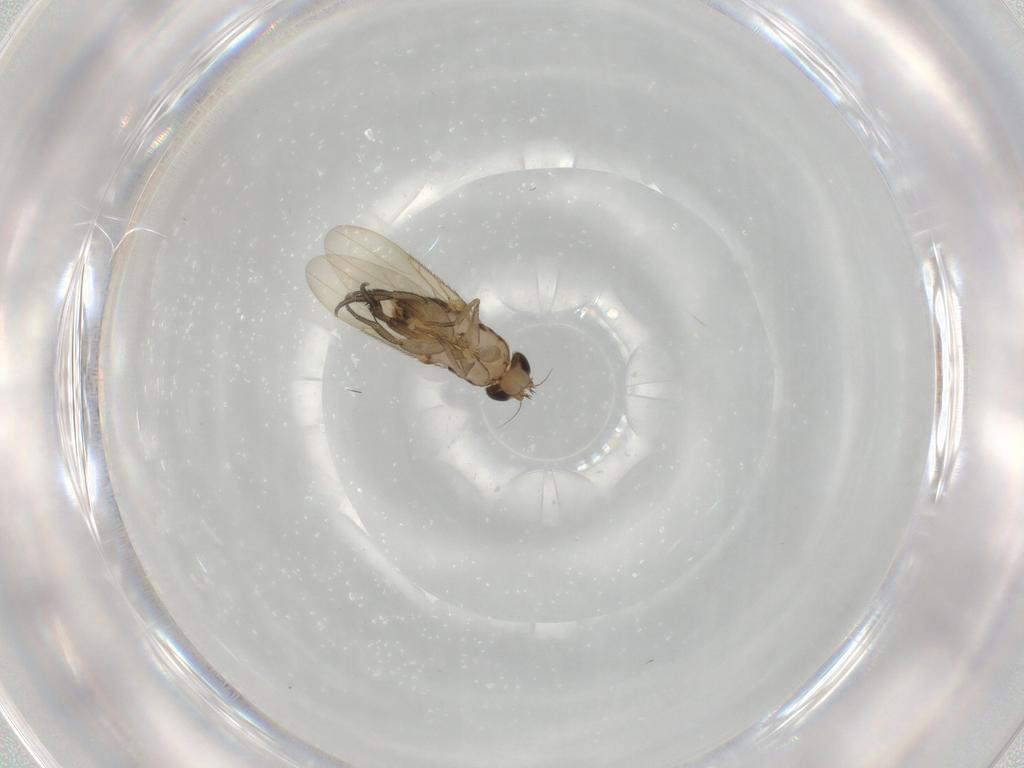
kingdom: Animalia
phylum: Arthropoda
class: Insecta
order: Diptera
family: Phoridae
